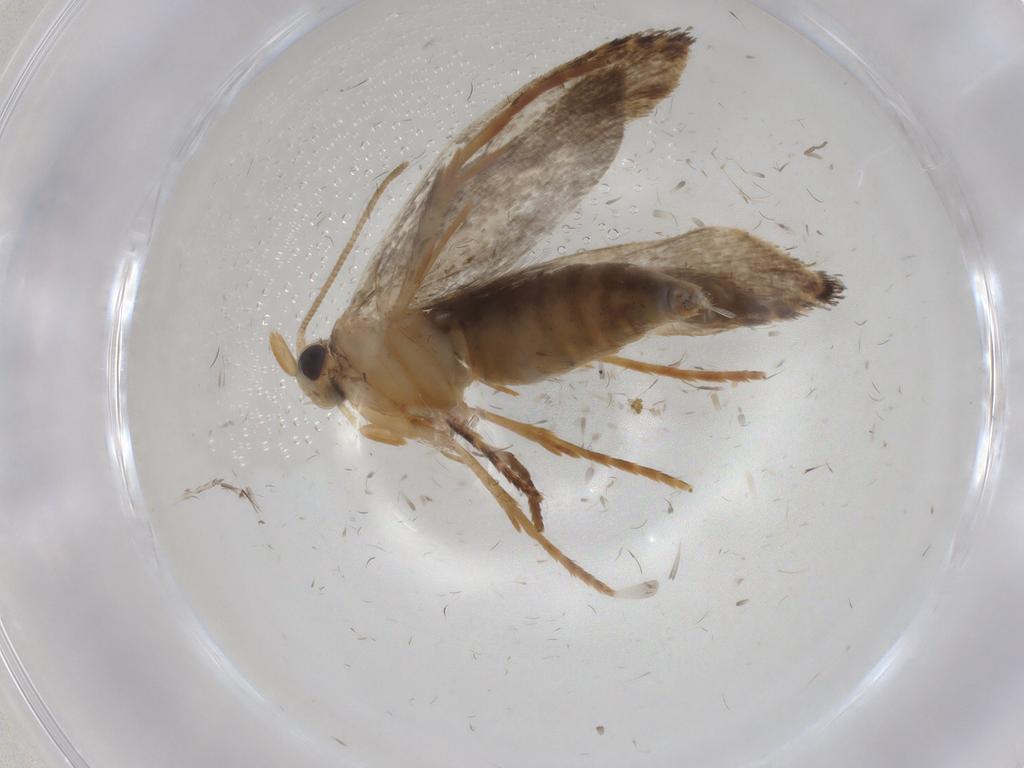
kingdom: Animalia
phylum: Arthropoda
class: Insecta
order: Lepidoptera
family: Tineidae
